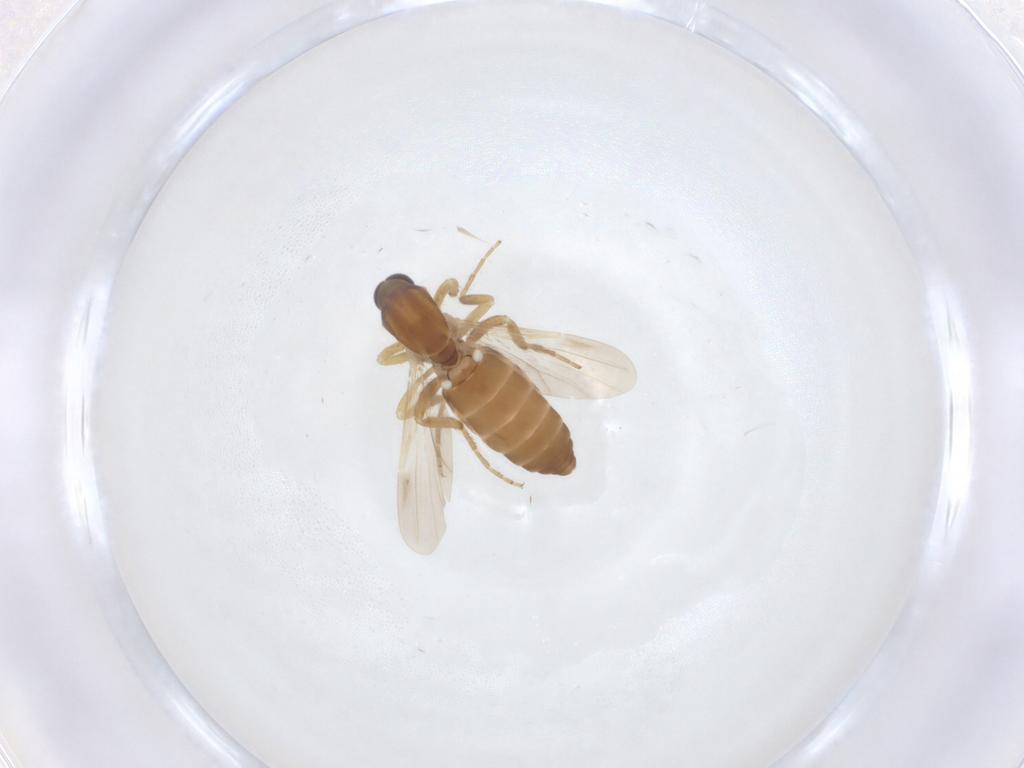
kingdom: Animalia
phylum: Arthropoda
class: Insecta
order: Diptera
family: Ceratopogonidae
